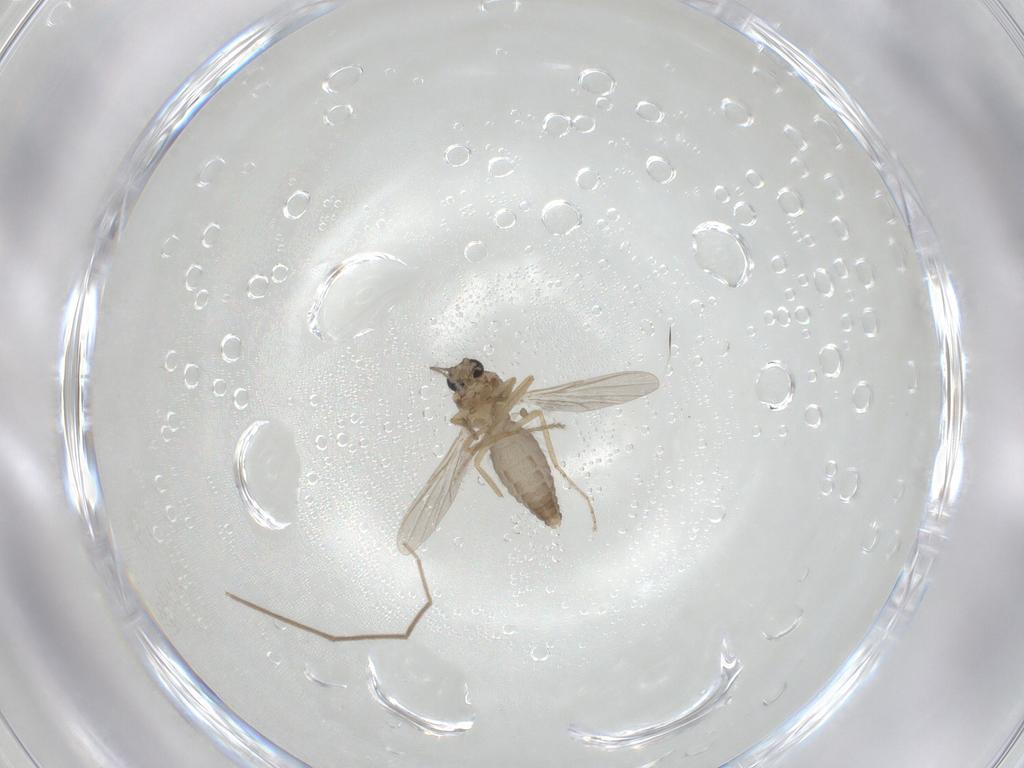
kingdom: Animalia
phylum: Arthropoda
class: Insecta
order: Diptera
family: Ceratopogonidae
